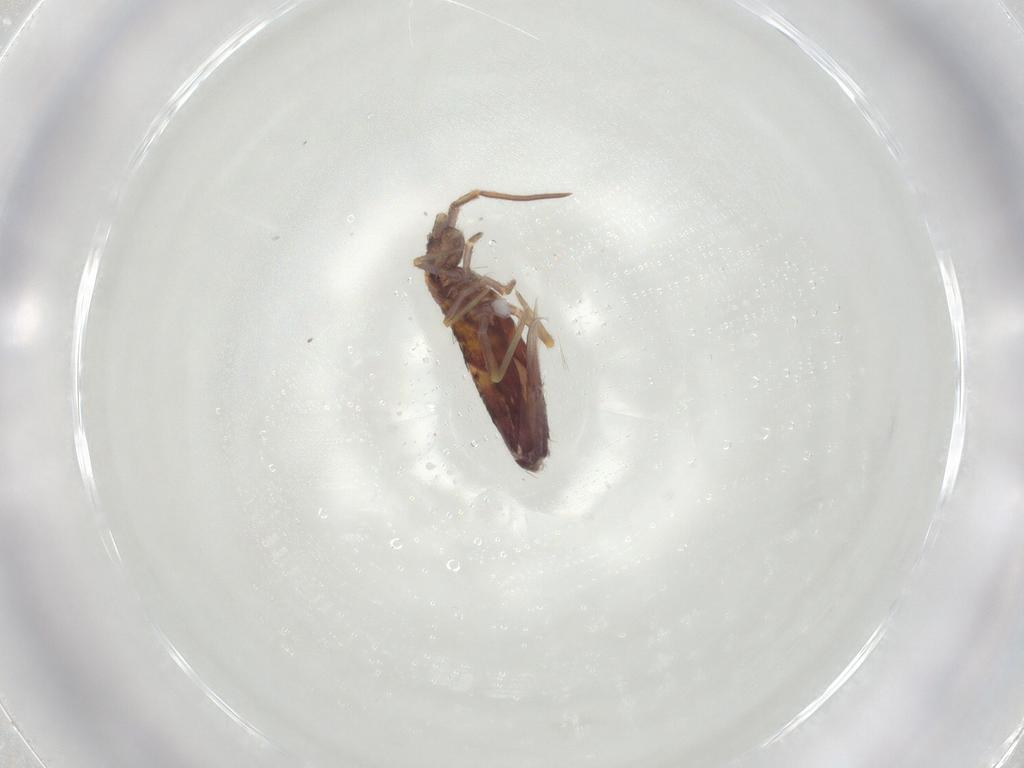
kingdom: Animalia
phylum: Arthropoda
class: Collembola
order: Entomobryomorpha
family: Entomobryidae
